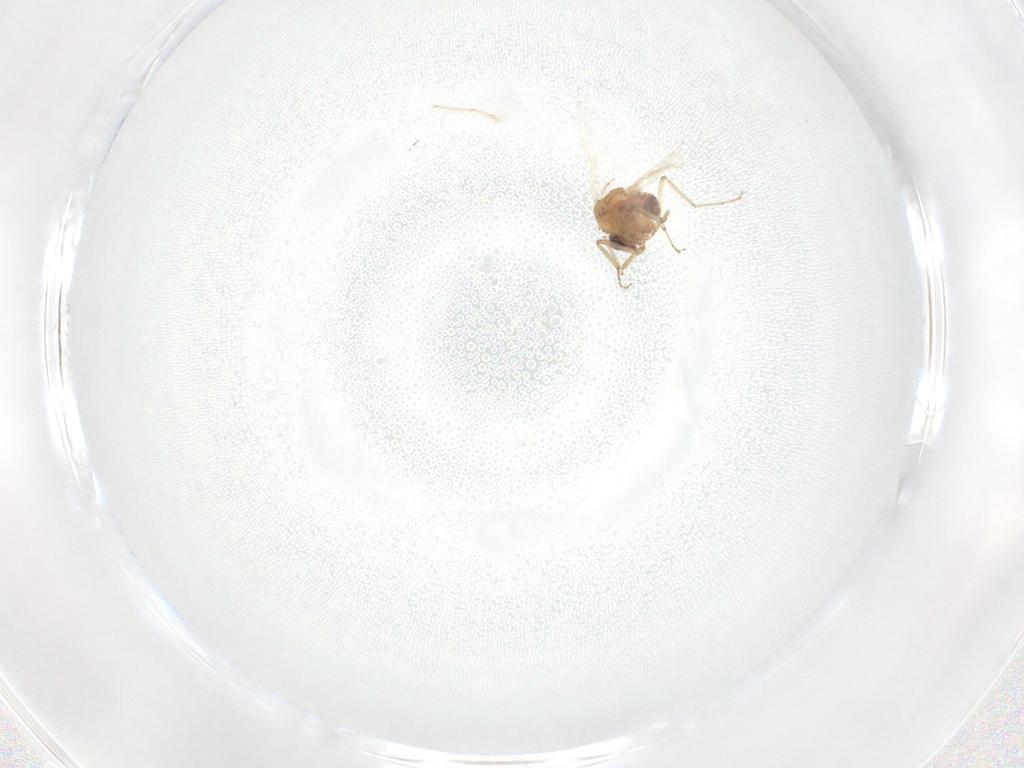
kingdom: Animalia
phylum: Arthropoda
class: Insecta
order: Diptera
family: Ceratopogonidae
